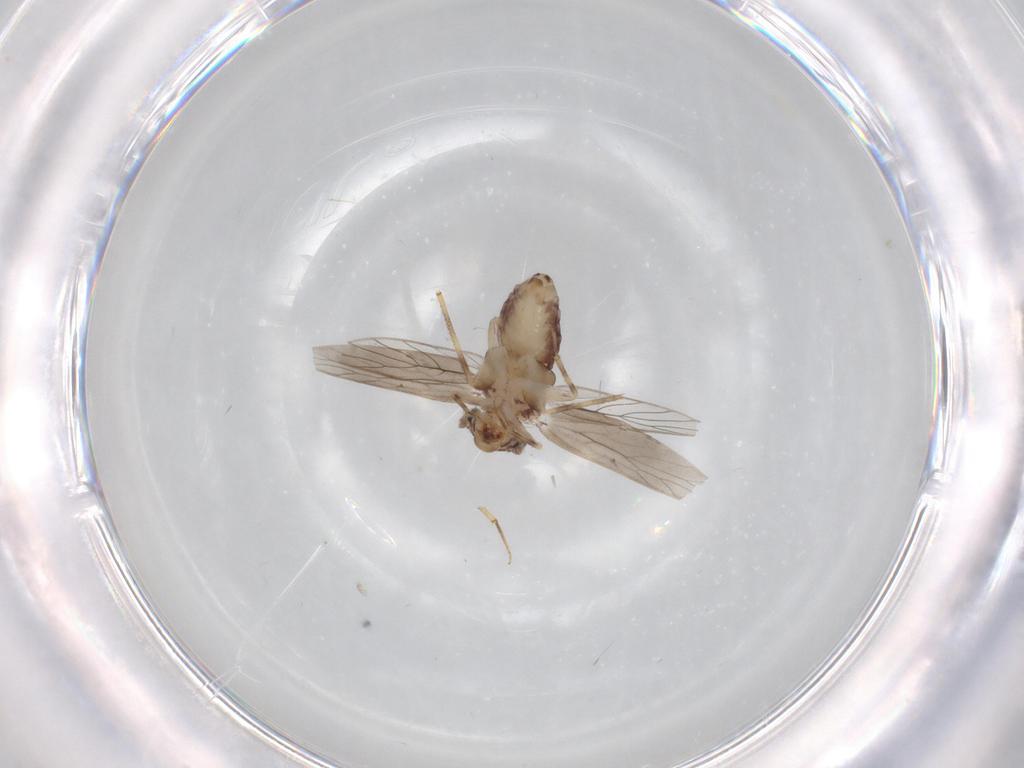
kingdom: Animalia
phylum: Arthropoda
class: Insecta
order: Psocodea
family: Lepidopsocidae
